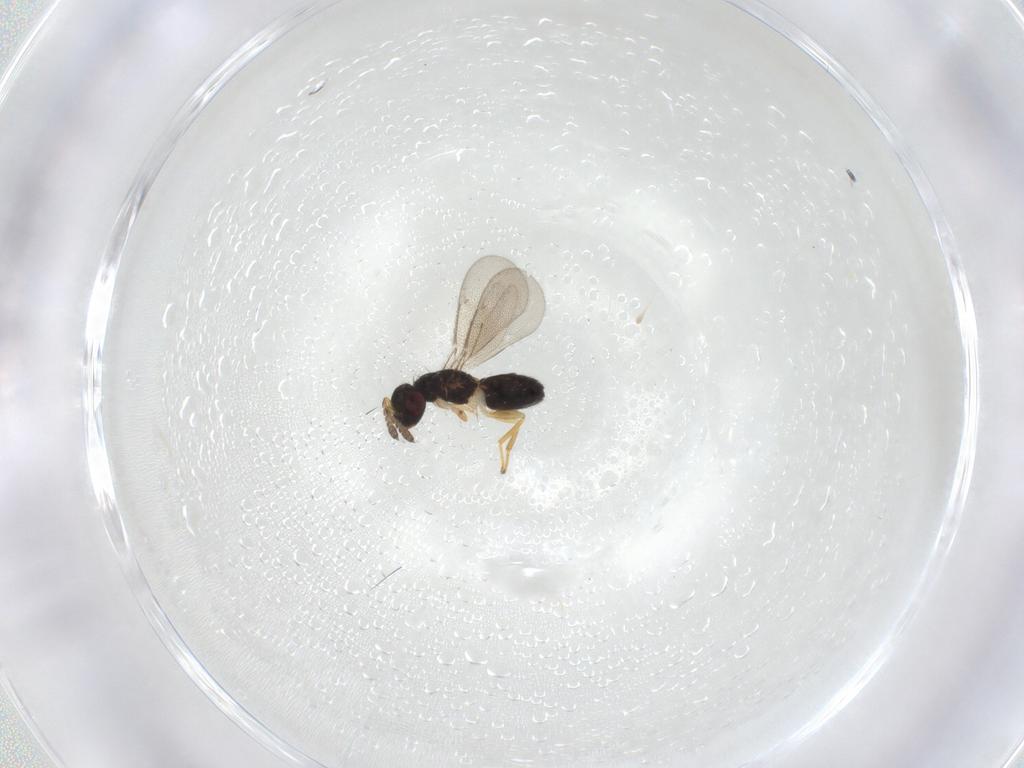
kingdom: Animalia
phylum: Arthropoda
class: Insecta
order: Hymenoptera
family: Eulophidae
